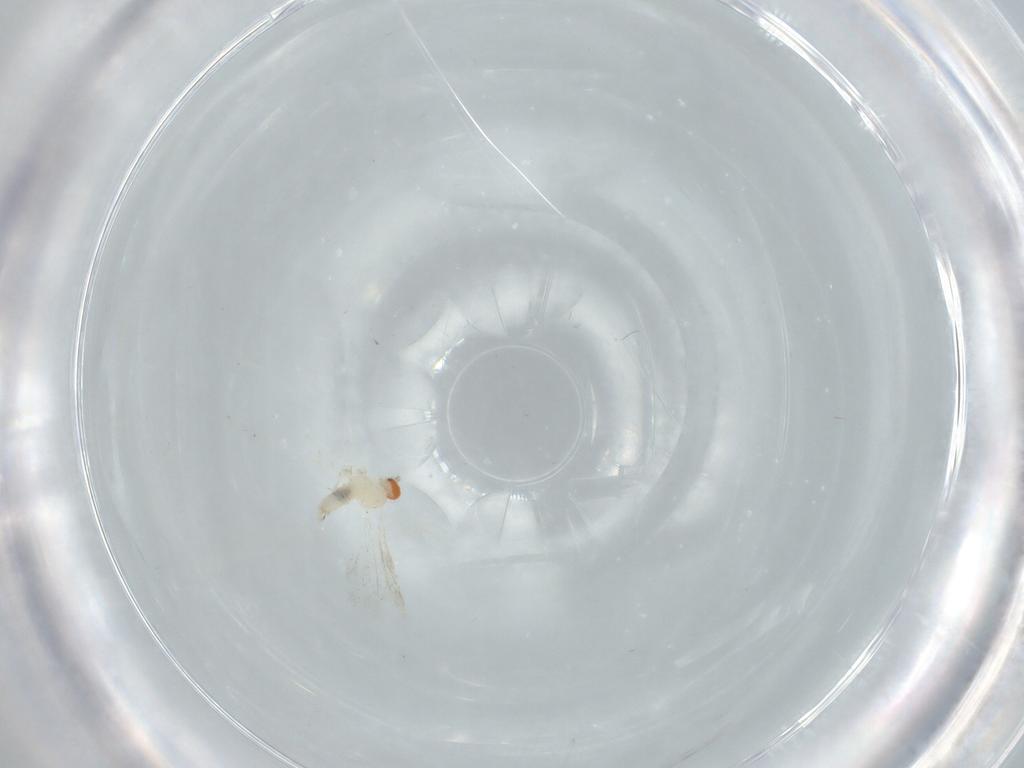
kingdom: Animalia
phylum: Arthropoda
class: Insecta
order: Diptera
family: Cecidomyiidae
